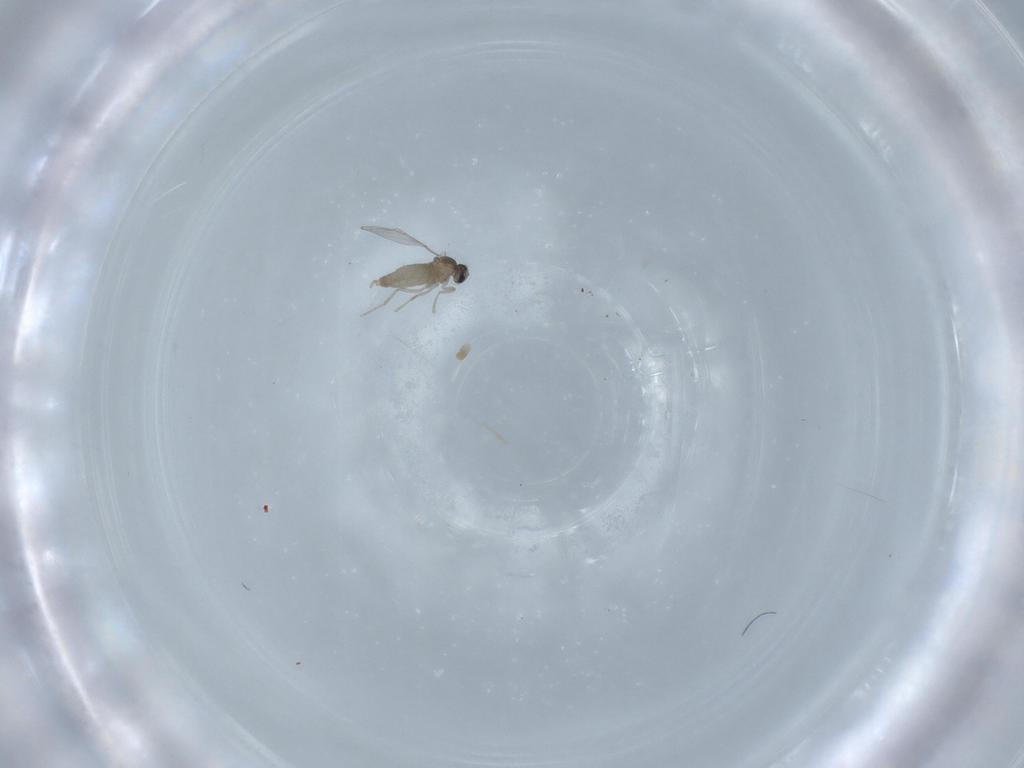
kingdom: Animalia
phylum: Arthropoda
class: Insecta
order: Diptera
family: Cecidomyiidae
